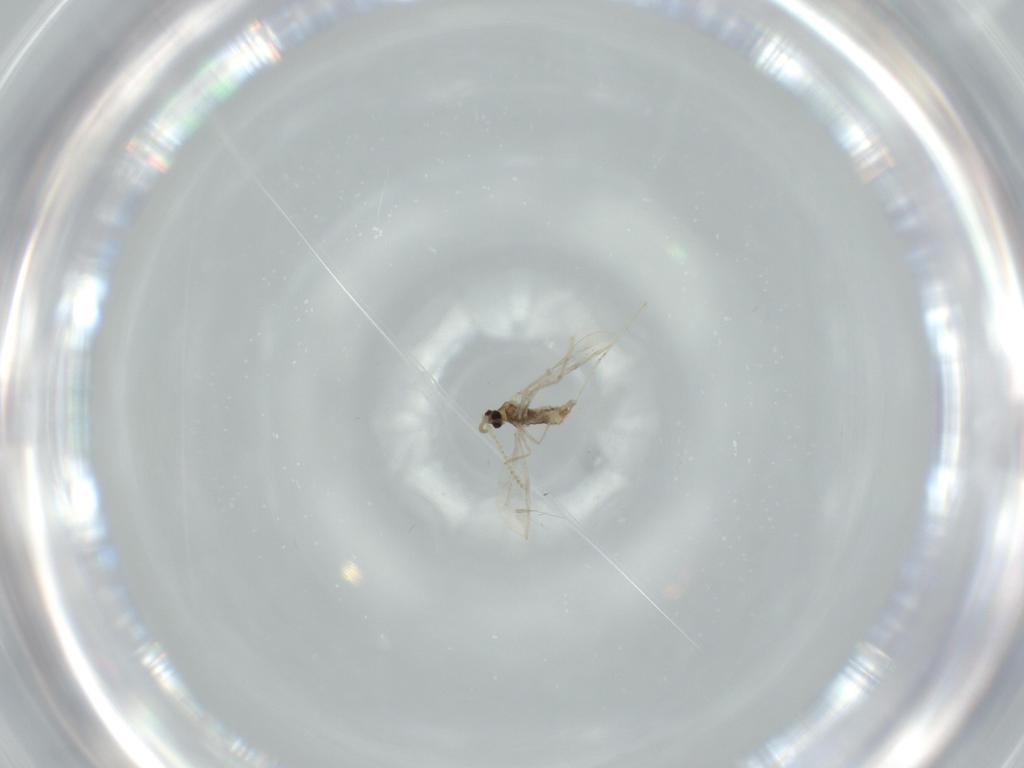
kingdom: Animalia
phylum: Arthropoda
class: Insecta
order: Diptera
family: Cecidomyiidae
